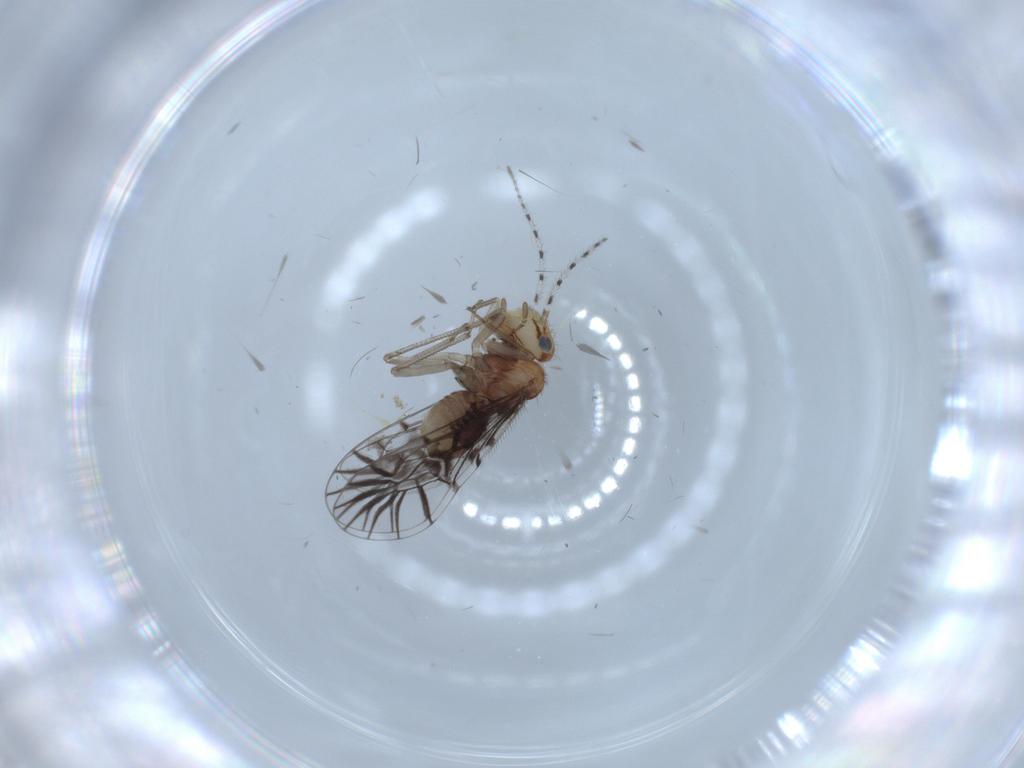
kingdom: Animalia
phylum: Arthropoda
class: Insecta
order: Psocodea
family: Amphipsocidae
